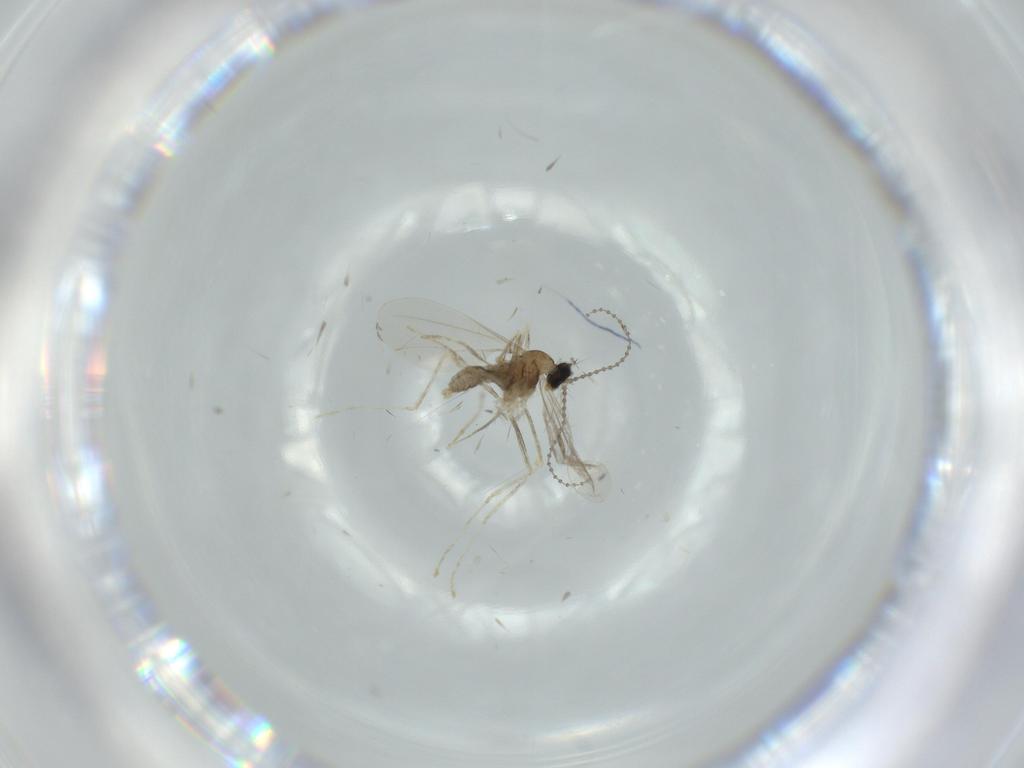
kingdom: Animalia
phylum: Arthropoda
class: Insecta
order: Diptera
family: Cecidomyiidae
